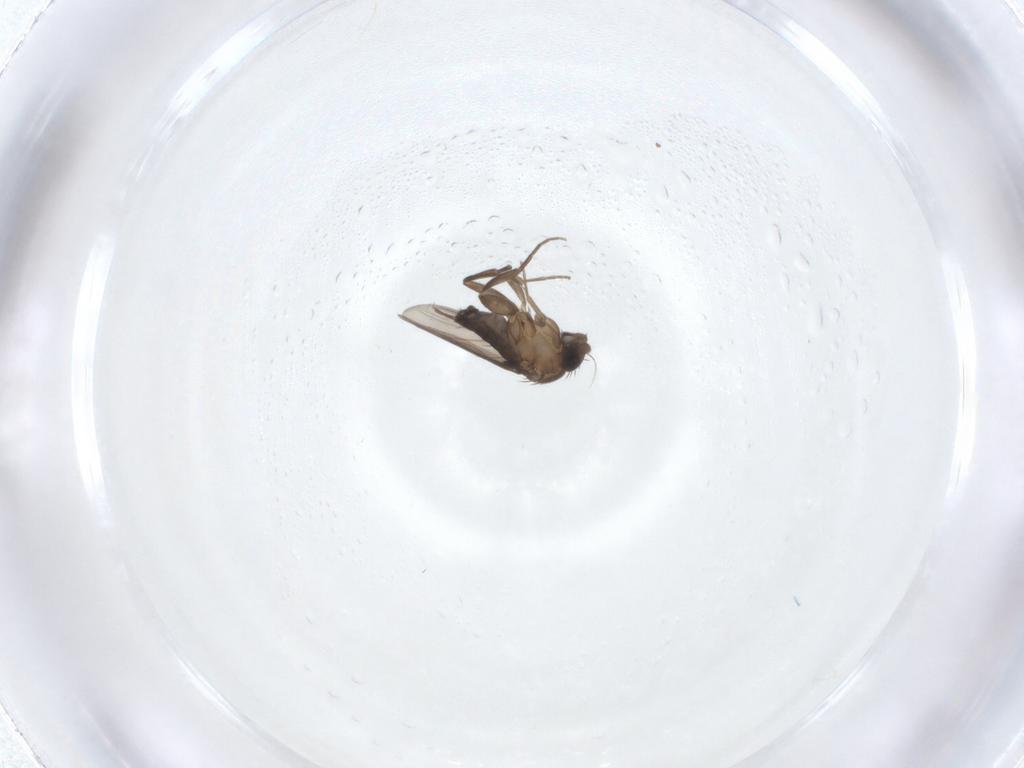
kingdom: Animalia
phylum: Arthropoda
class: Insecta
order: Diptera
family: Phoridae
